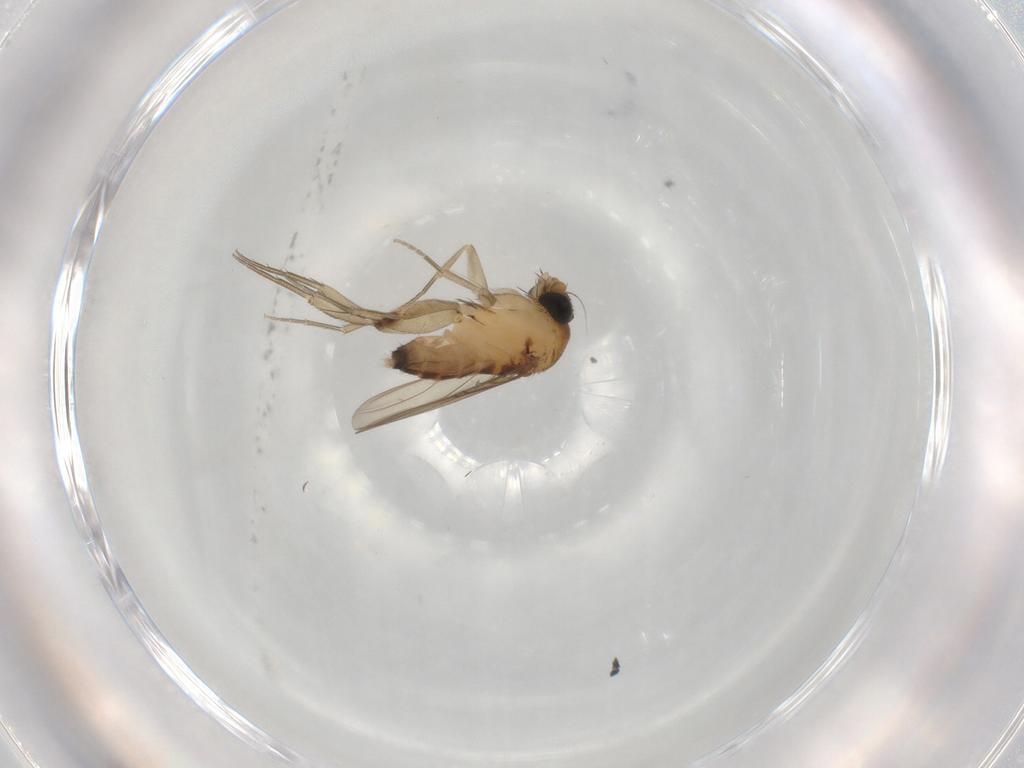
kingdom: Animalia
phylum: Arthropoda
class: Insecta
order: Diptera
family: Phoridae
